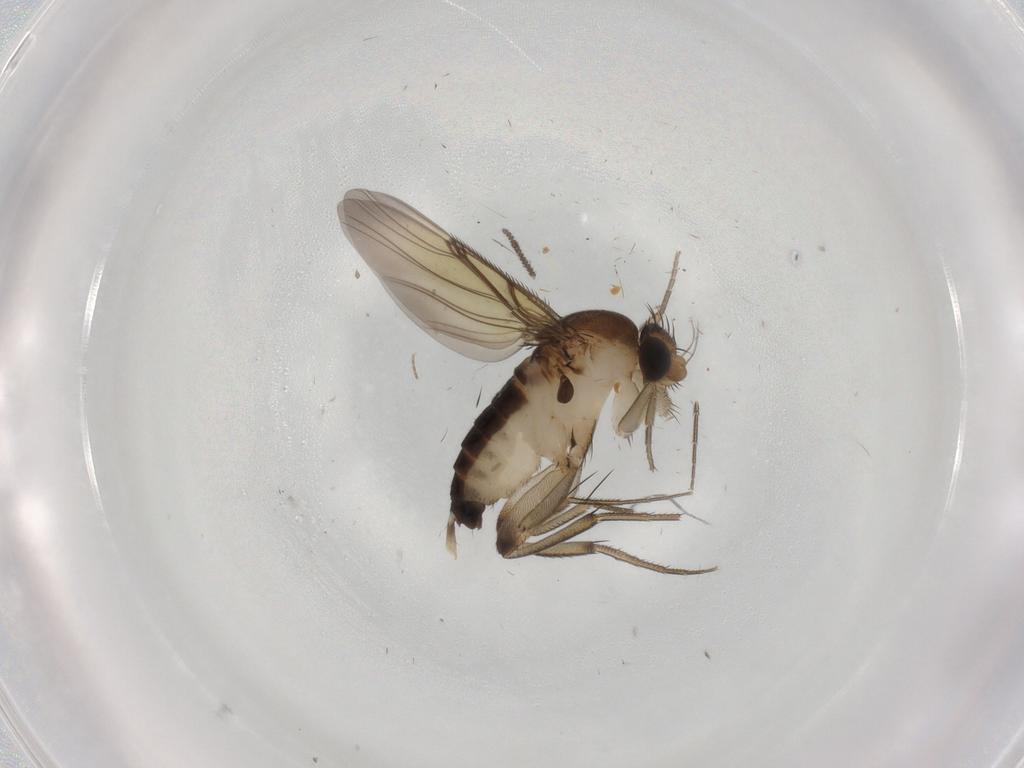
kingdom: Animalia
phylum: Arthropoda
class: Insecta
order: Diptera
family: Phoridae
